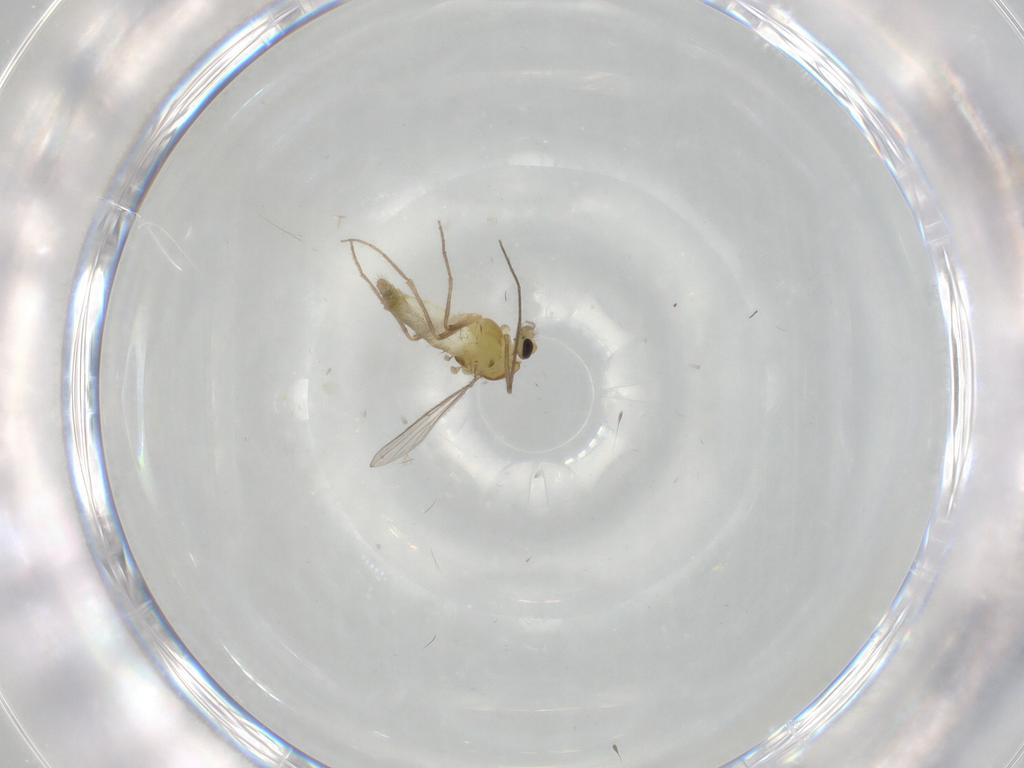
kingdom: Animalia
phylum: Arthropoda
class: Insecta
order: Diptera
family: Chironomidae
